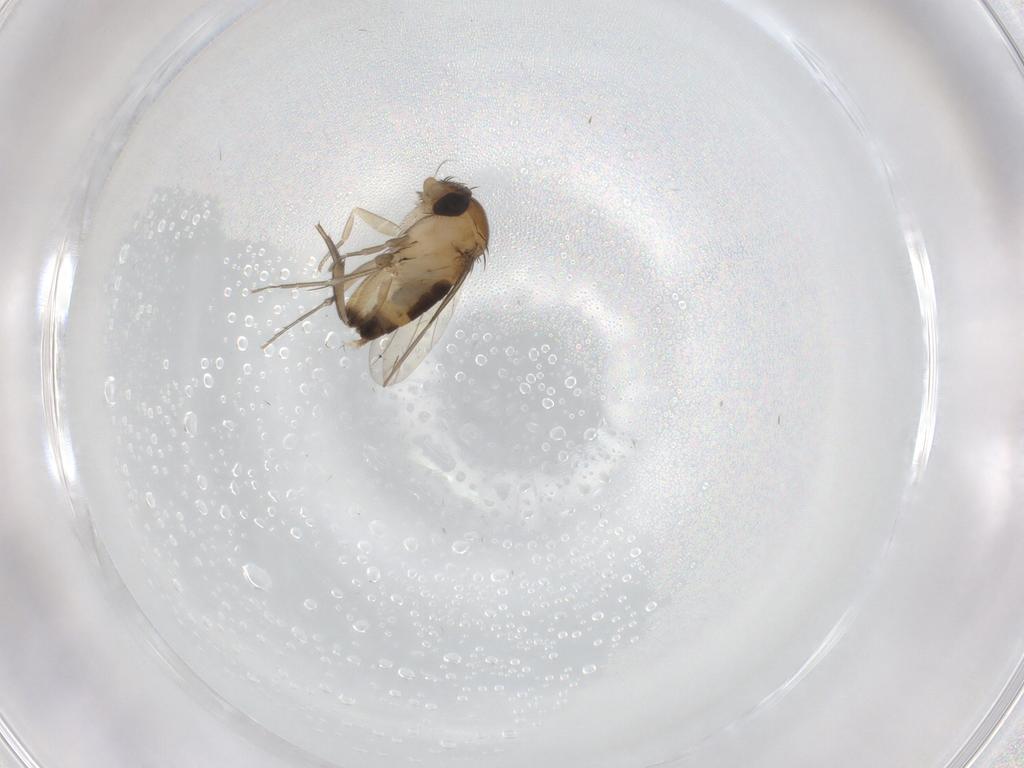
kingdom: Animalia
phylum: Arthropoda
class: Insecta
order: Diptera
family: Phoridae
